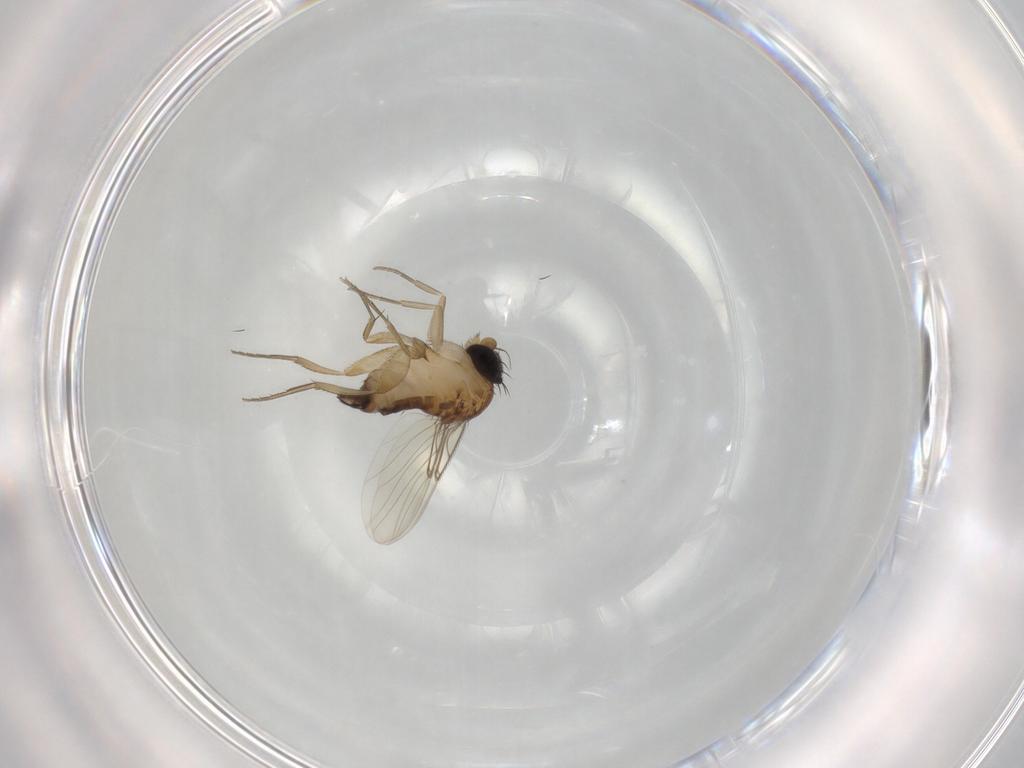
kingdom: Animalia
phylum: Arthropoda
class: Insecta
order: Diptera
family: Phoridae
